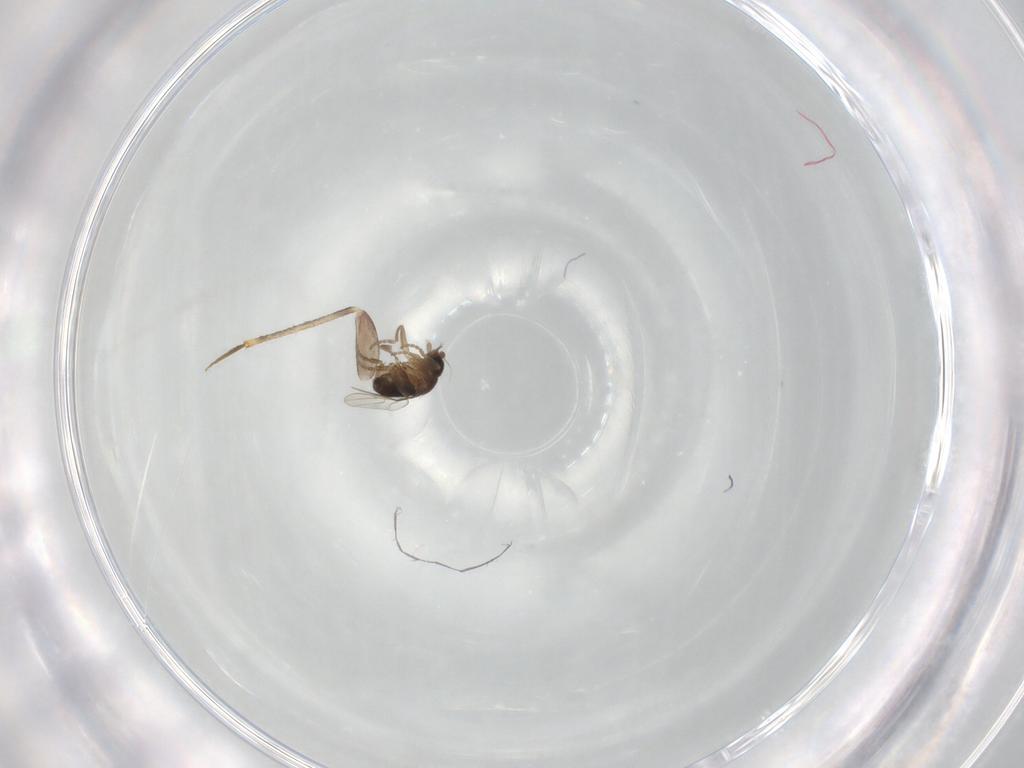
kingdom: Animalia
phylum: Arthropoda
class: Insecta
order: Diptera
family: Phoridae
